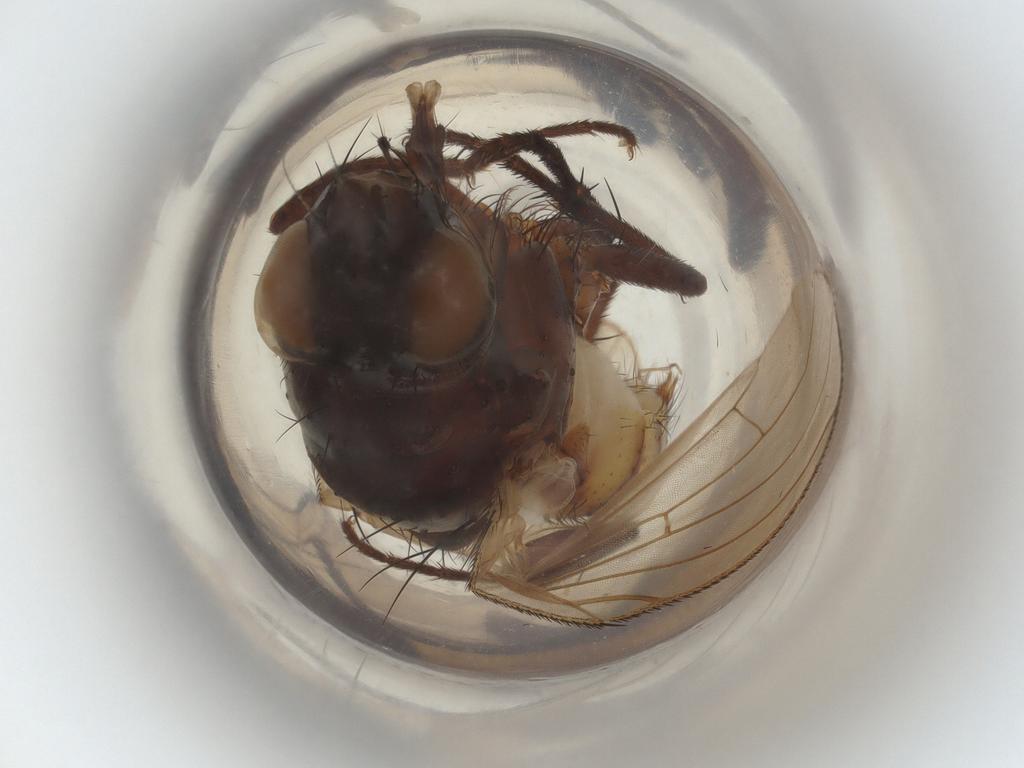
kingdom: Animalia
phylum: Arthropoda
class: Insecta
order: Diptera
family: Anthomyiidae
